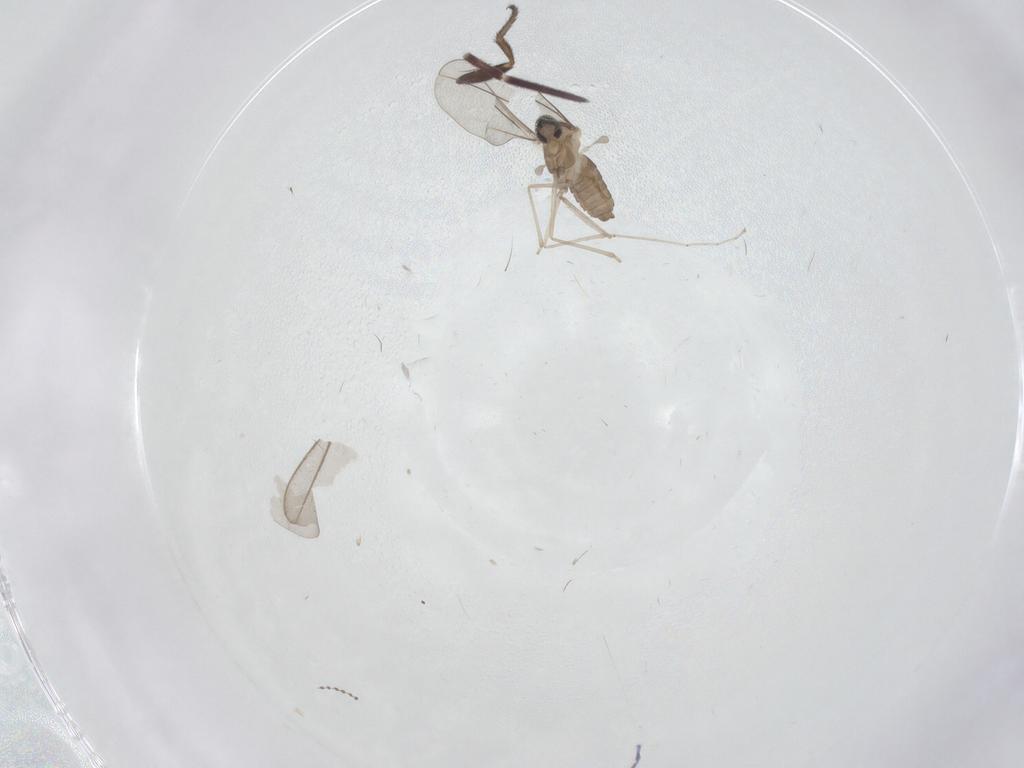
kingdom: Animalia
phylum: Arthropoda
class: Insecta
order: Diptera
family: Cecidomyiidae
